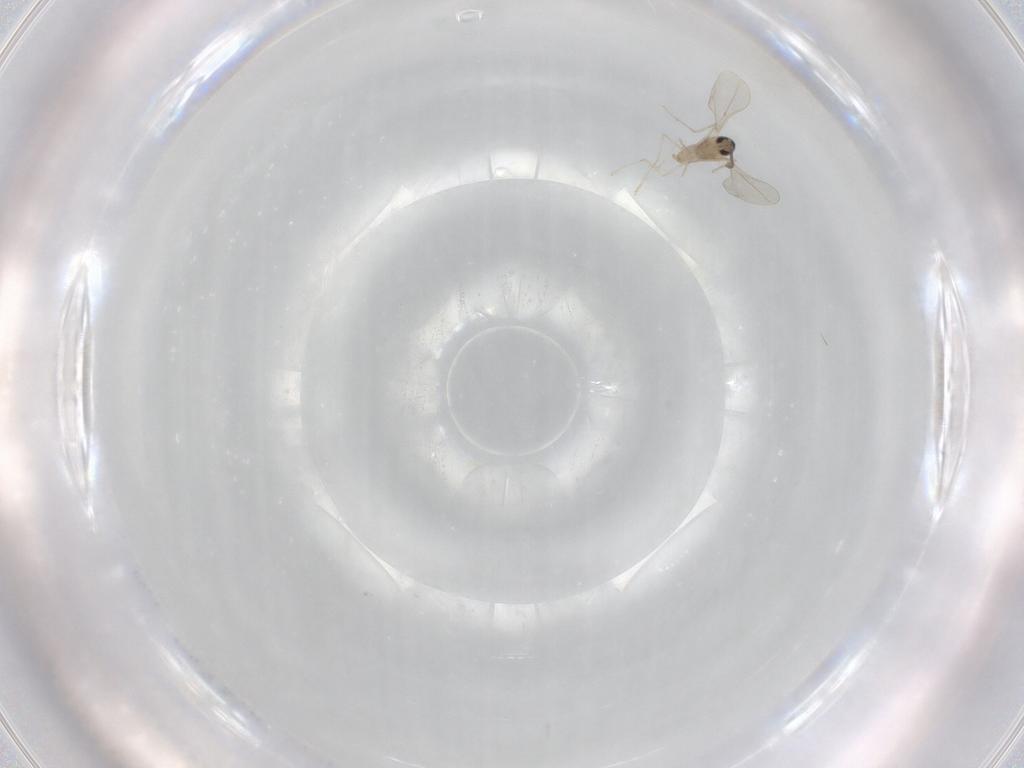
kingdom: Animalia
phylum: Arthropoda
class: Insecta
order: Diptera
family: Cecidomyiidae
